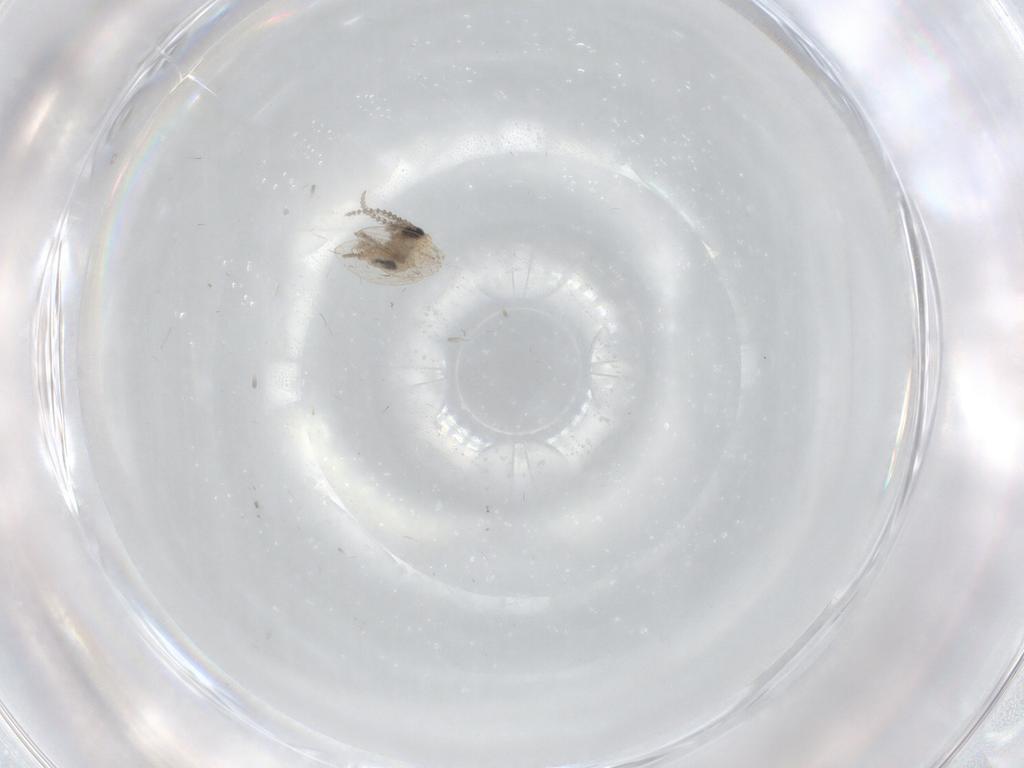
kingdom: Animalia
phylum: Arthropoda
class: Insecta
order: Diptera
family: Psychodidae
